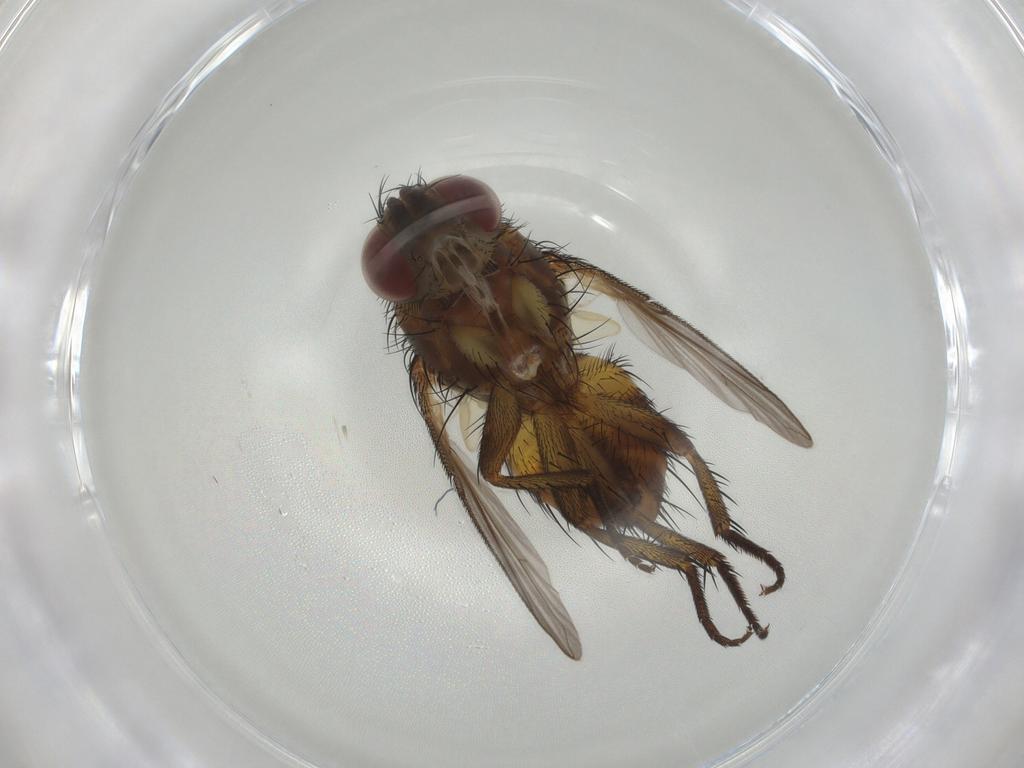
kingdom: Animalia
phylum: Arthropoda
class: Insecta
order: Diptera
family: Tachinidae
